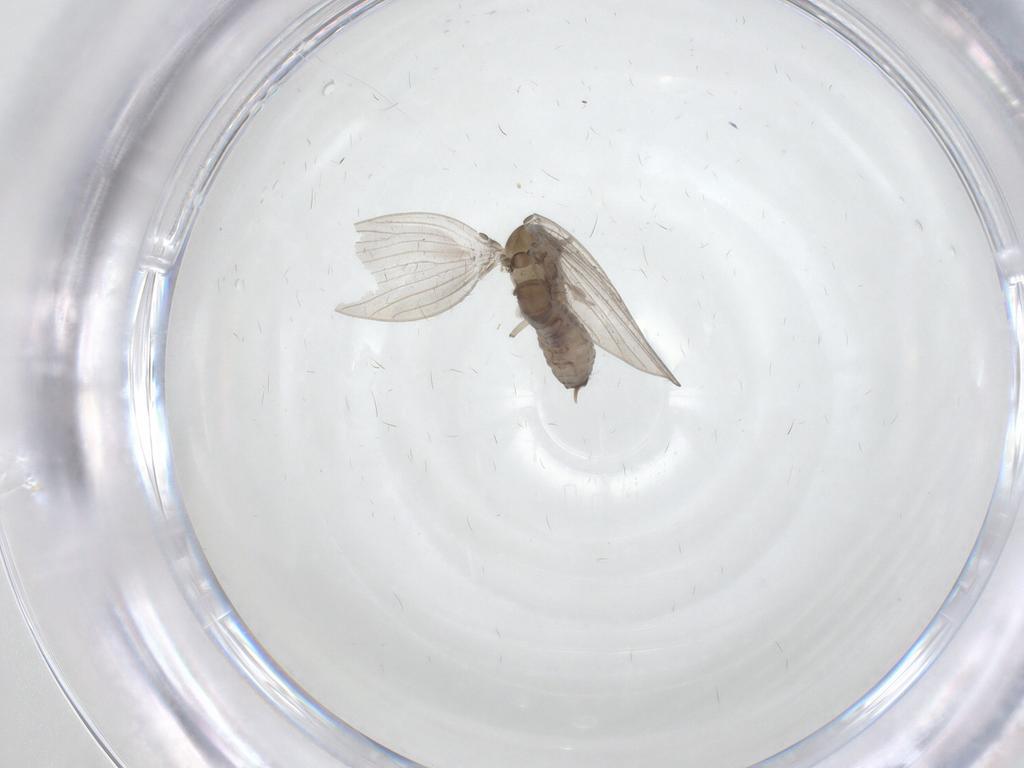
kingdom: Animalia
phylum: Arthropoda
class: Insecta
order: Diptera
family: Psychodidae
